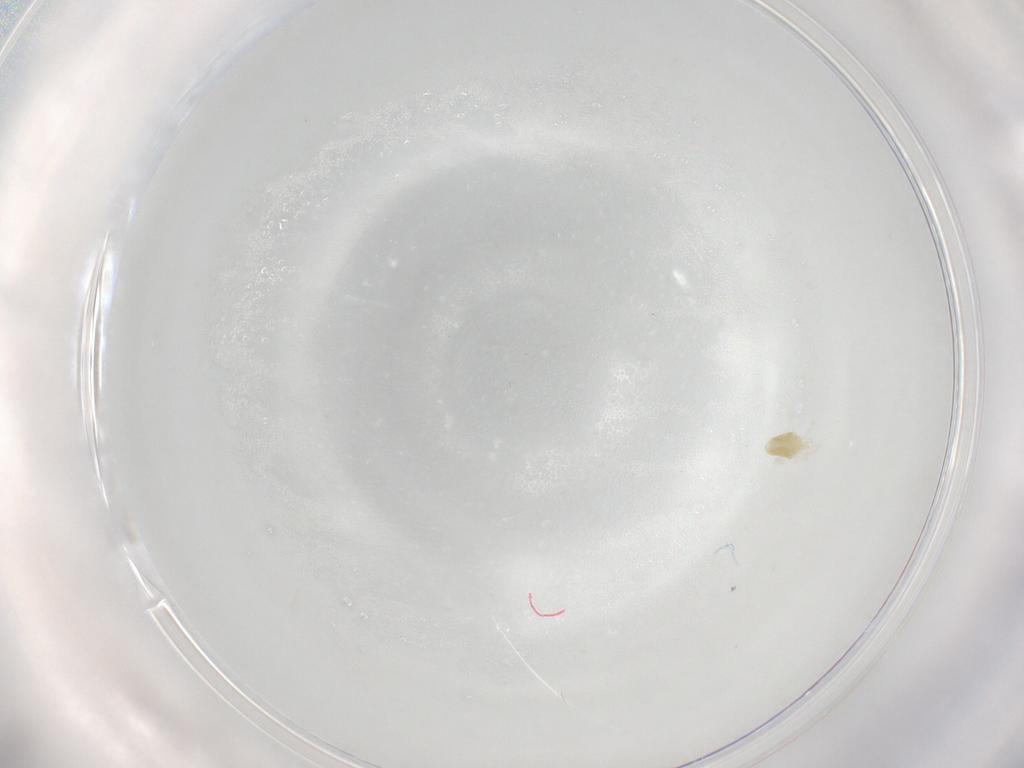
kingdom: Animalia
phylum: Arthropoda
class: Arachnida
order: Trombidiformes
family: Eupodidae
